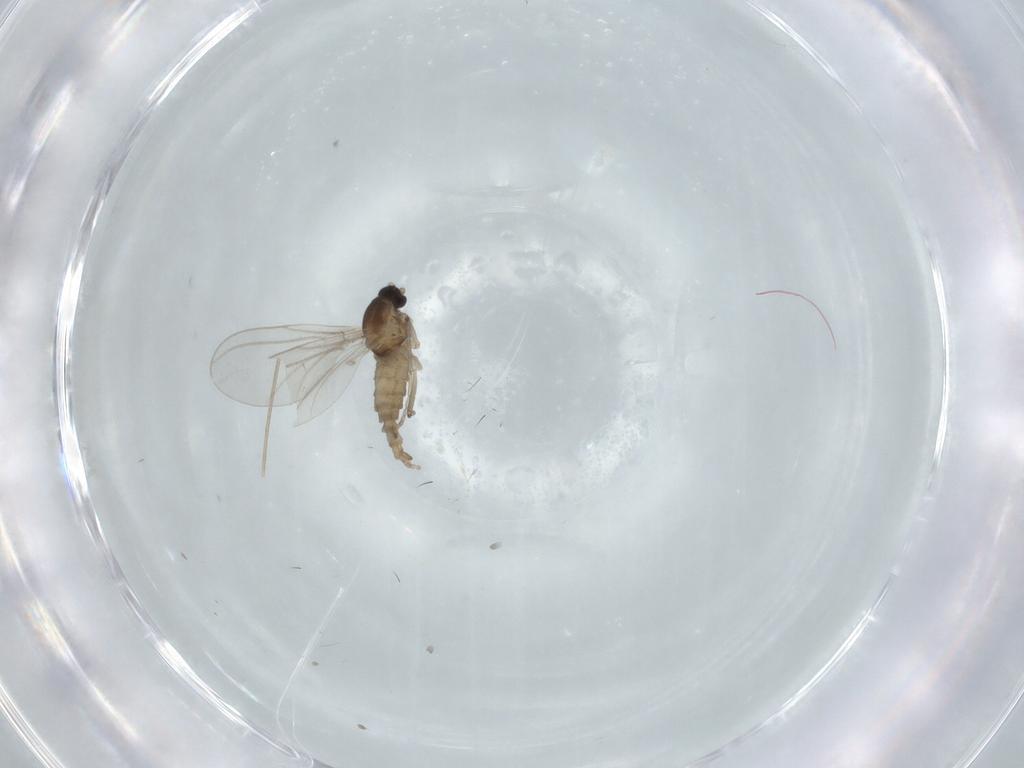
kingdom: Animalia
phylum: Arthropoda
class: Insecta
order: Diptera
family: Cecidomyiidae
